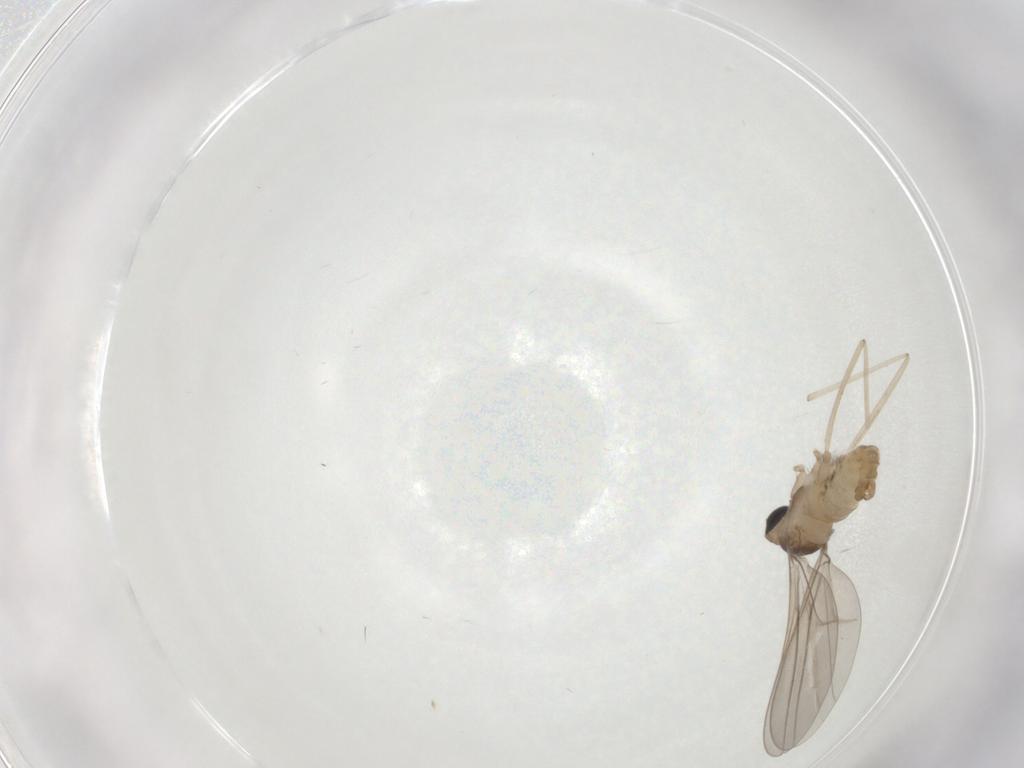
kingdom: Animalia
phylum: Arthropoda
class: Insecta
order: Diptera
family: Cecidomyiidae
